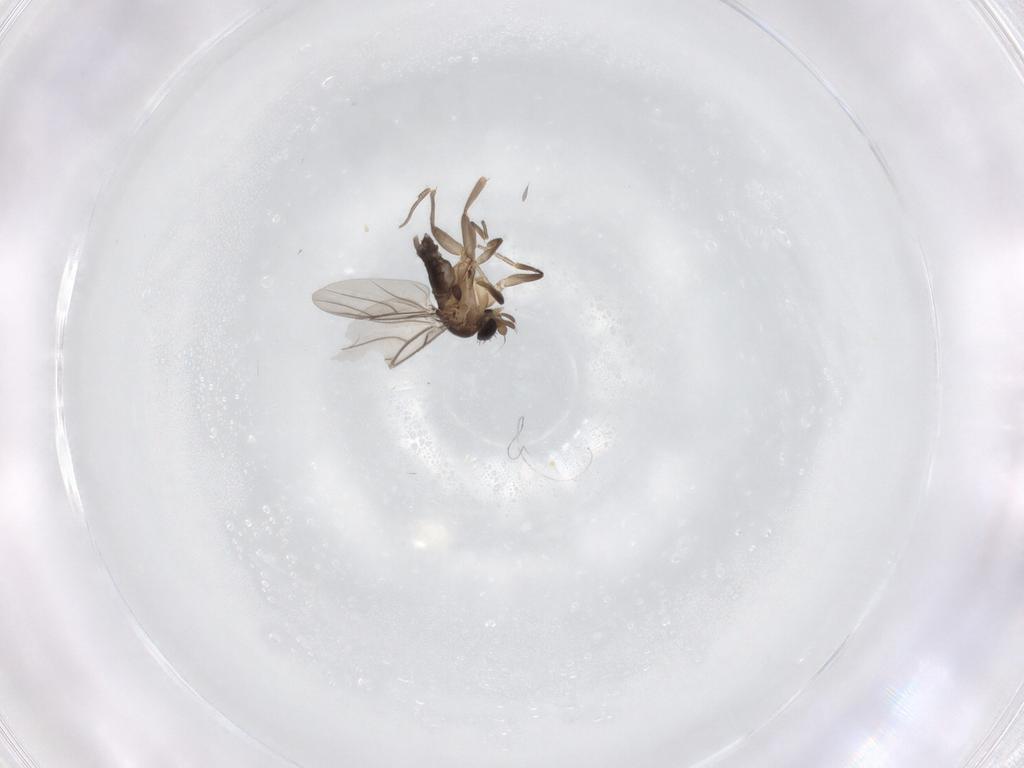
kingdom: Animalia
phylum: Arthropoda
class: Insecta
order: Diptera
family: Phoridae
